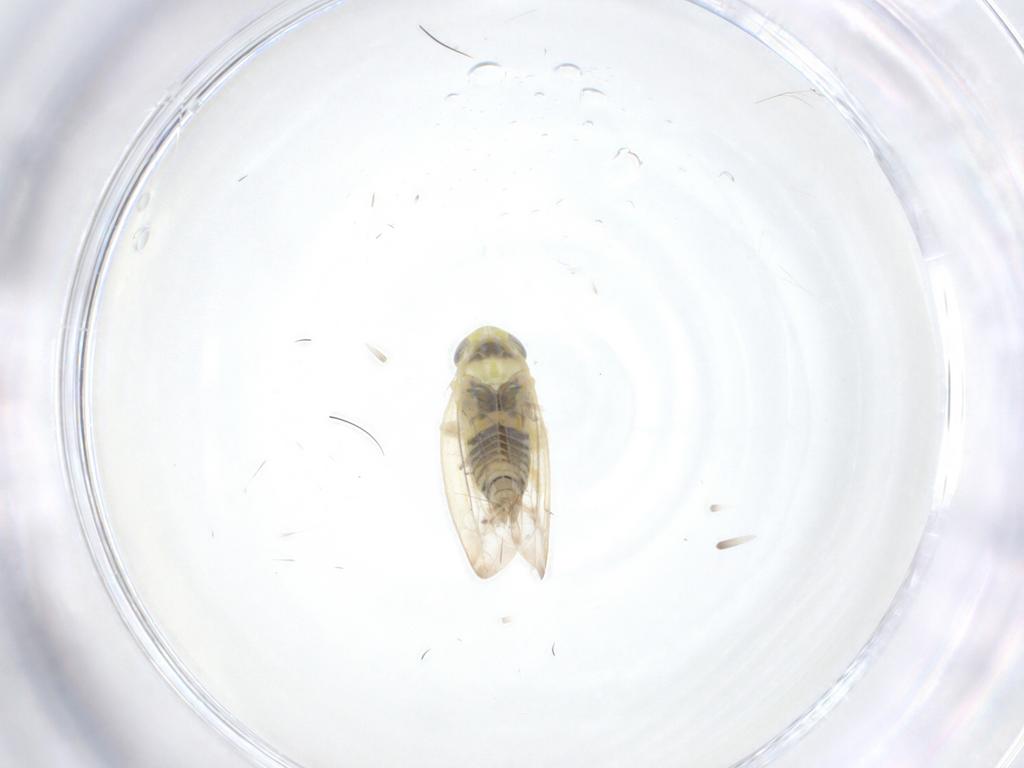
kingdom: Animalia
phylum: Arthropoda
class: Insecta
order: Hemiptera
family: Cicadellidae
